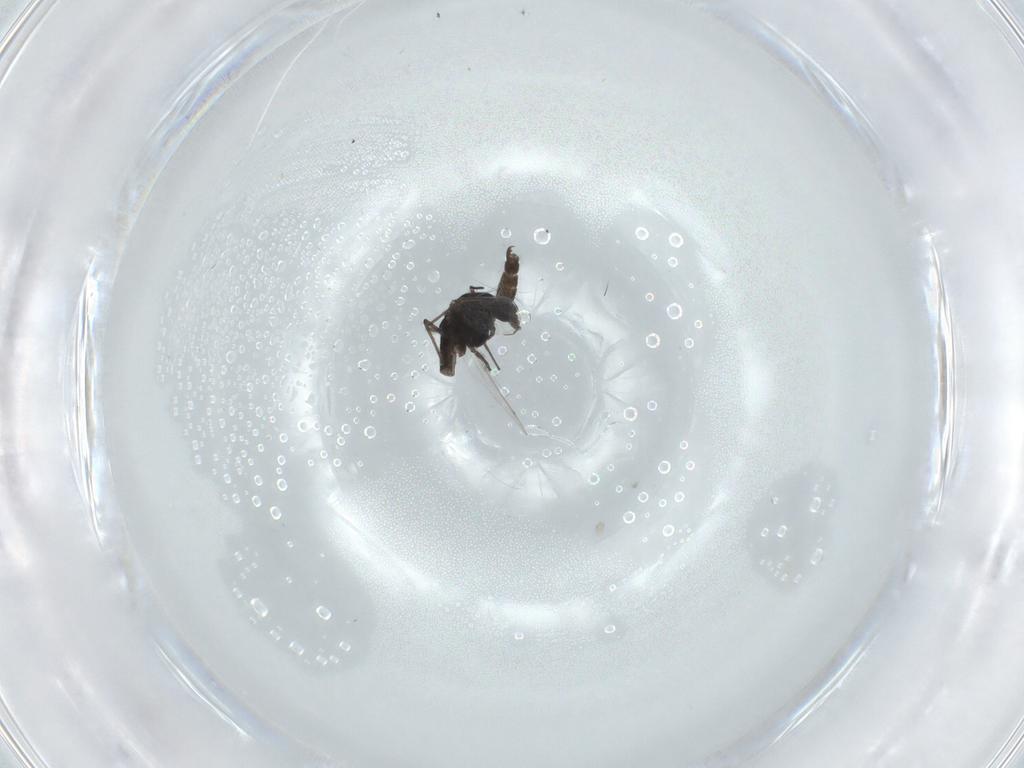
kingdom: Animalia
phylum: Arthropoda
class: Insecta
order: Diptera
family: Chironomidae
